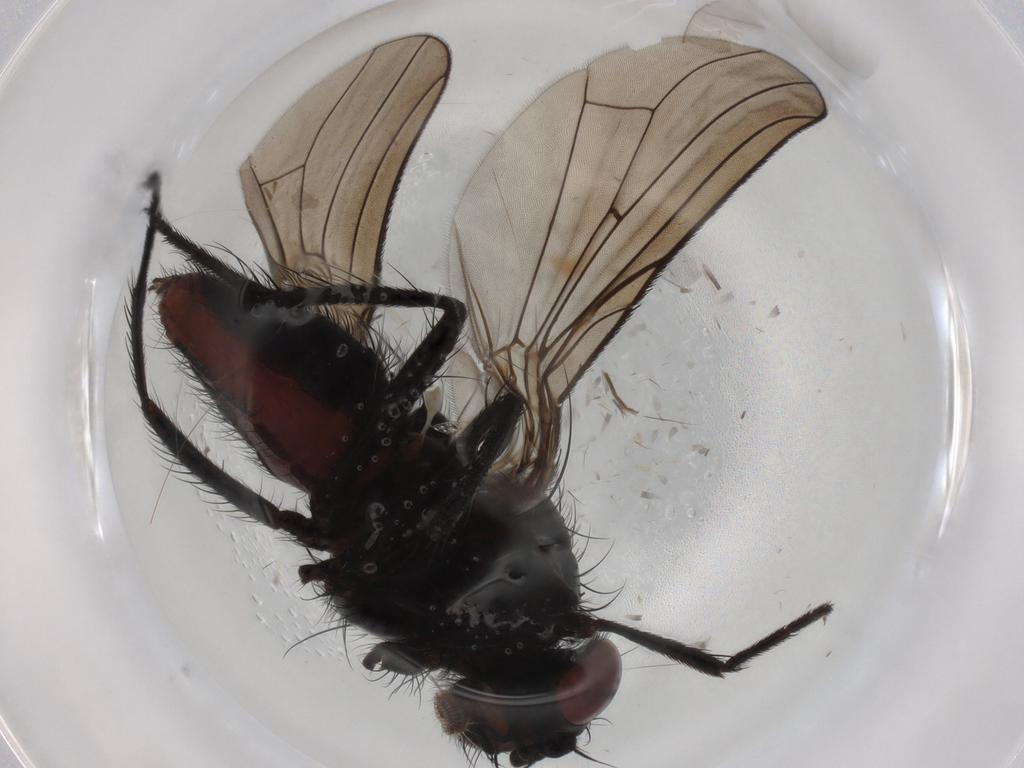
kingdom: Animalia
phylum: Arthropoda
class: Insecta
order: Diptera
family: Anthomyiidae
